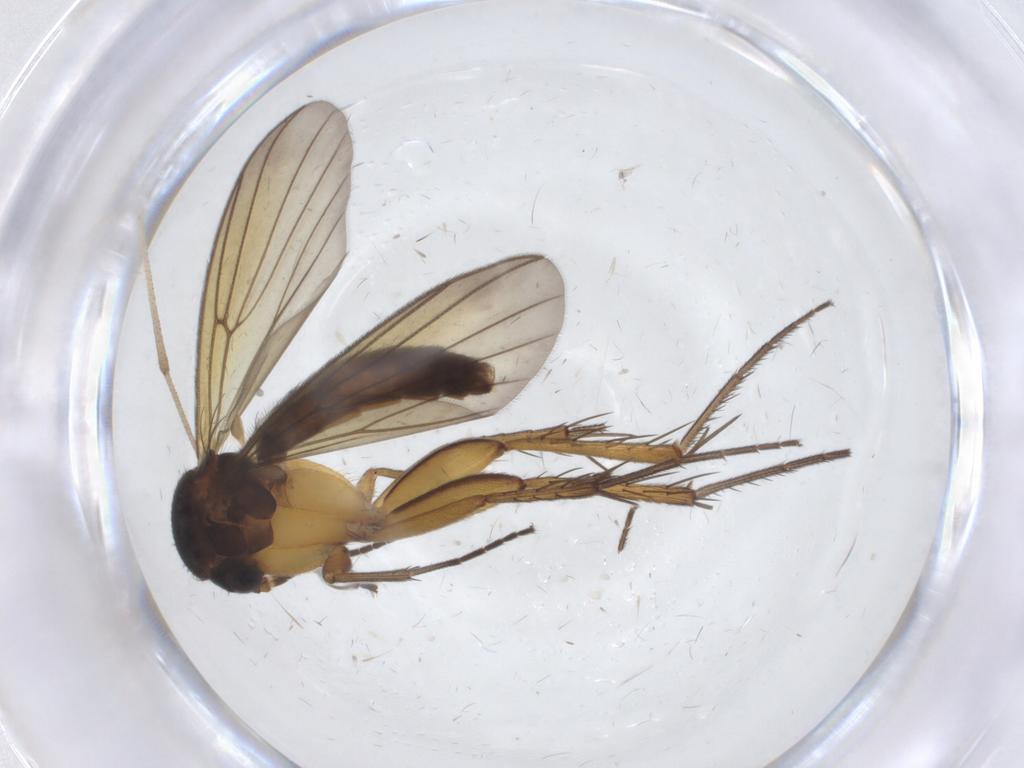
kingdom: Animalia
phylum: Arthropoda
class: Insecta
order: Diptera
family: Mycetophilidae
